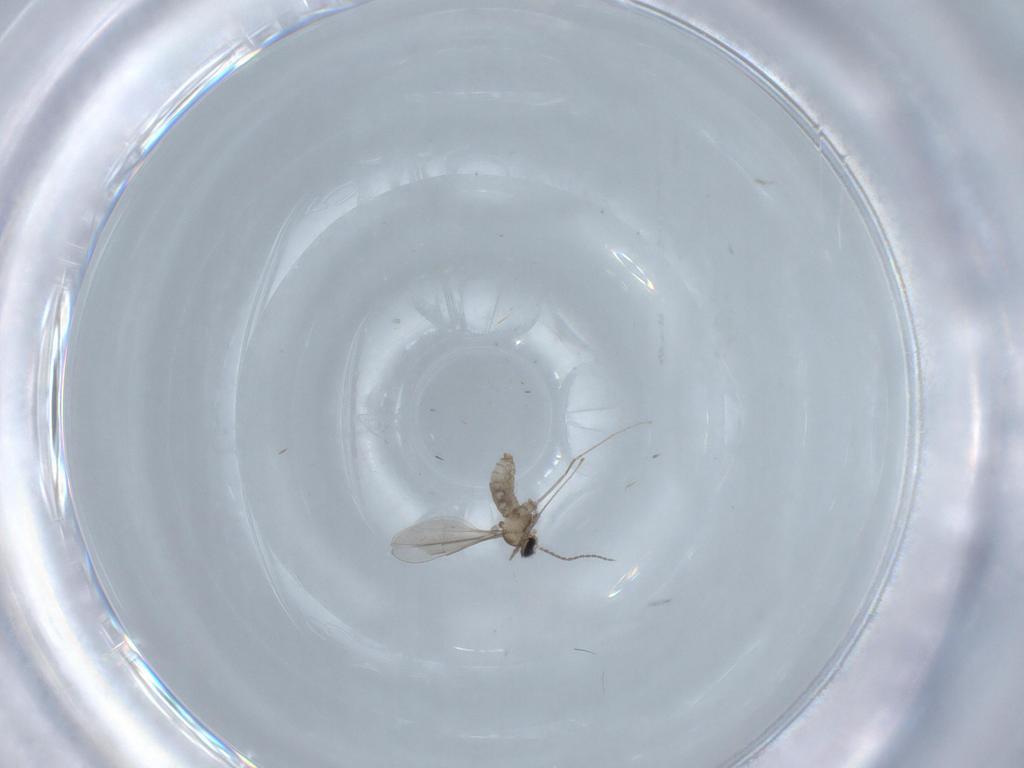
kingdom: Animalia
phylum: Arthropoda
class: Insecta
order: Diptera
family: Cecidomyiidae
